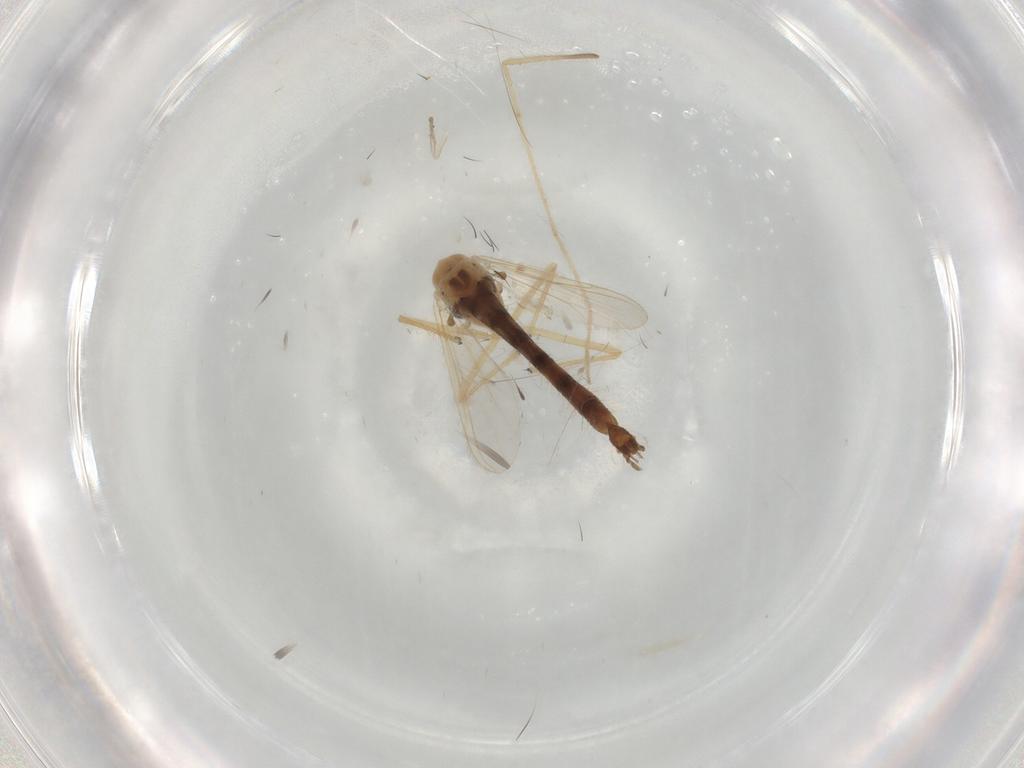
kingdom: Animalia
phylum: Arthropoda
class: Insecta
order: Diptera
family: Chironomidae
